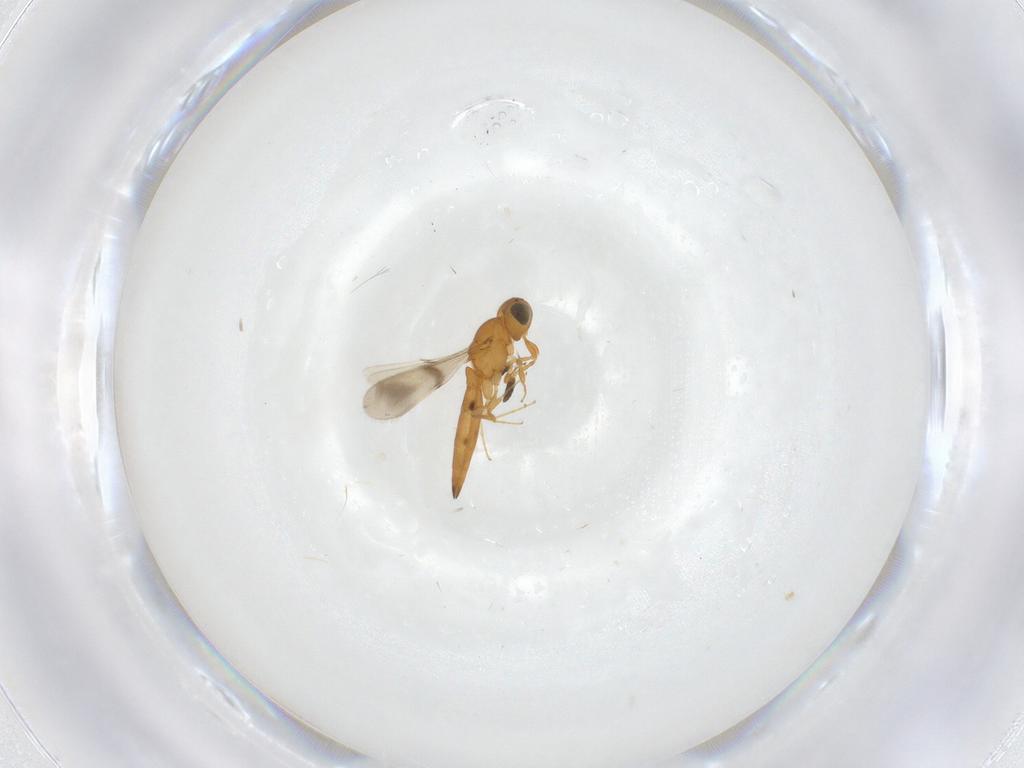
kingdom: Animalia
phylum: Arthropoda
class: Insecta
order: Hymenoptera
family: Scelionidae
